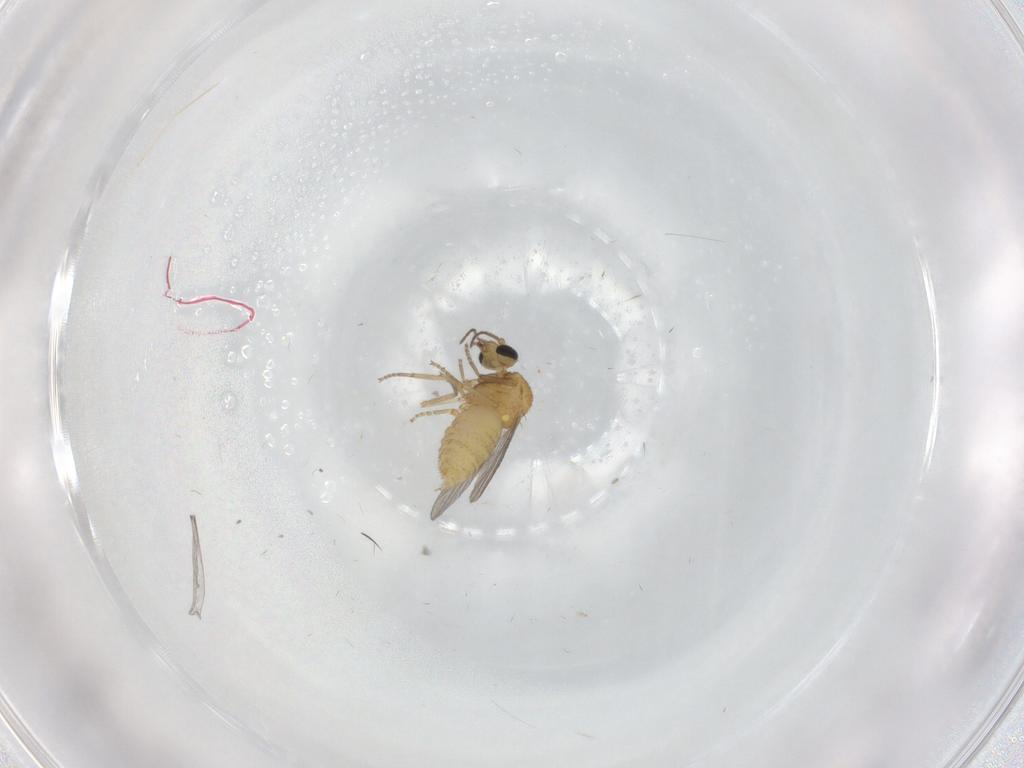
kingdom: Animalia
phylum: Arthropoda
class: Insecta
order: Diptera
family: Ceratopogonidae
